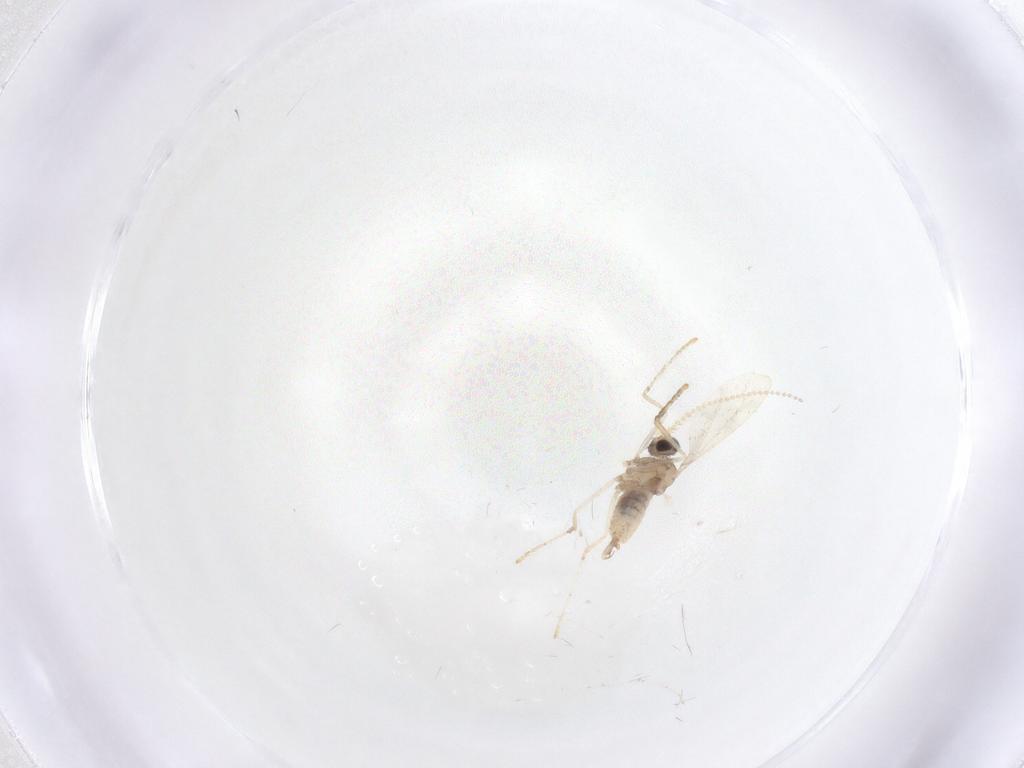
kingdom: Animalia
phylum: Arthropoda
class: Insecta
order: Diptera
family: Cecidomyiidae
